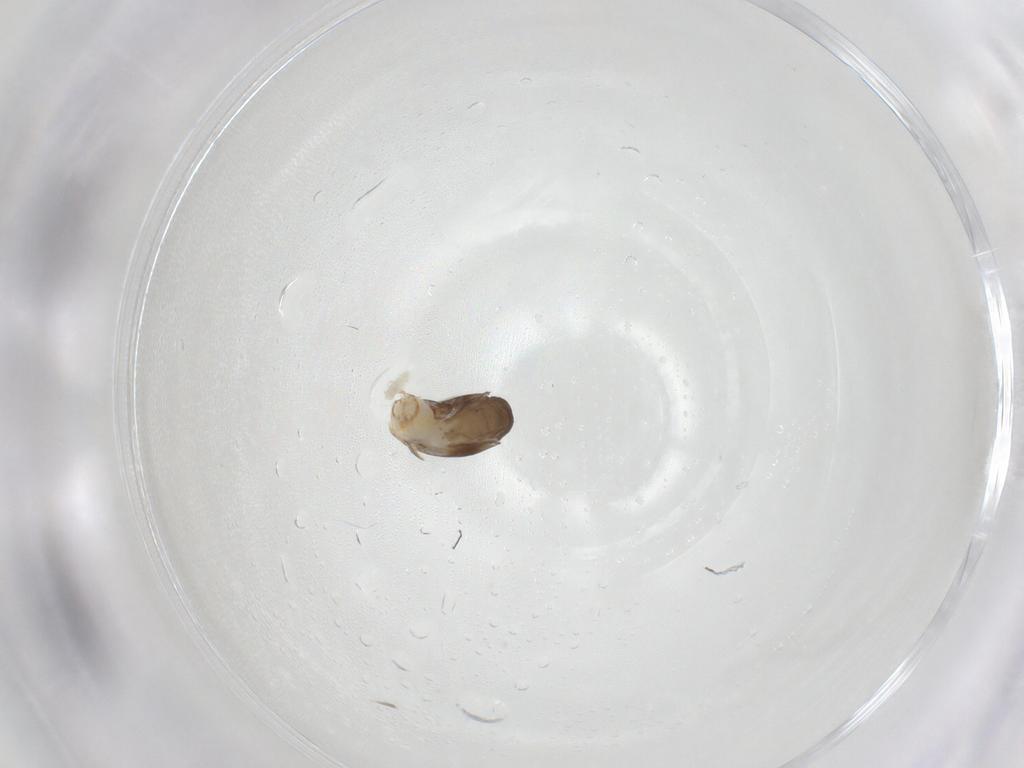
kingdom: Animalia
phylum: Arthropoda
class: Insecta
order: Hymenoptera
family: Dryinidae
